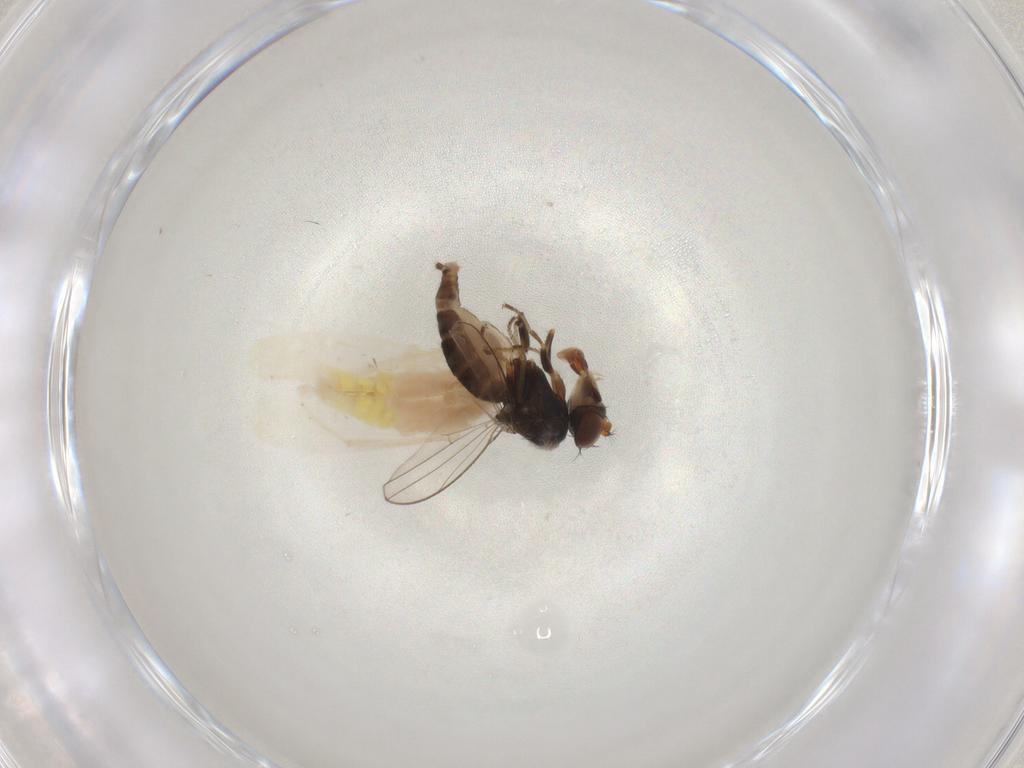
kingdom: Animalia
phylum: Arthropoda
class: Insecta
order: Hemiptera
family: Cicadellidae
